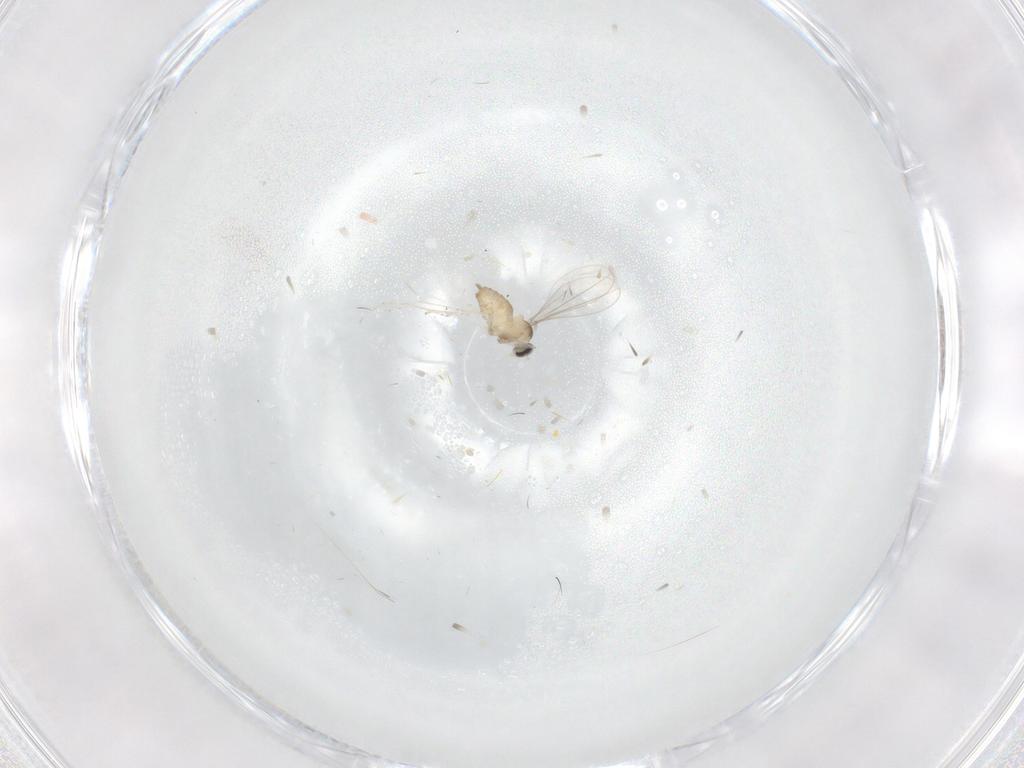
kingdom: Animalia
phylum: Arthropoda
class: Insecta
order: Diptera
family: Cecidomyiidae
